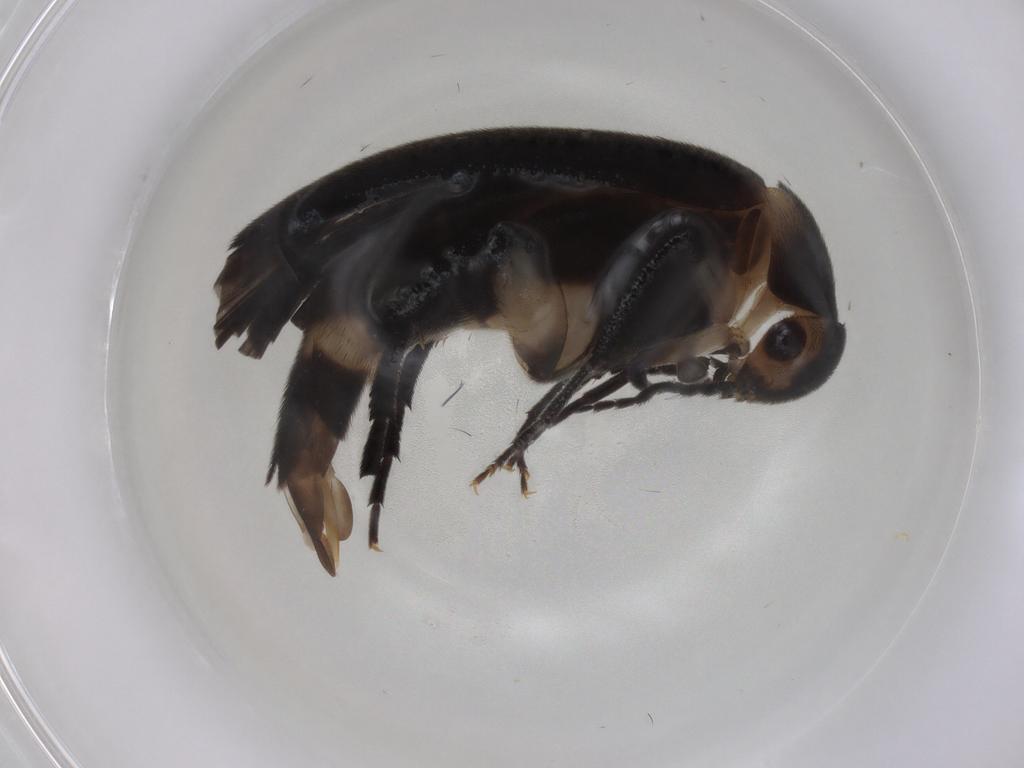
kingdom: Animalia
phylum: Arthropoda
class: Insecta
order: Coleoptera
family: Mordellidae
